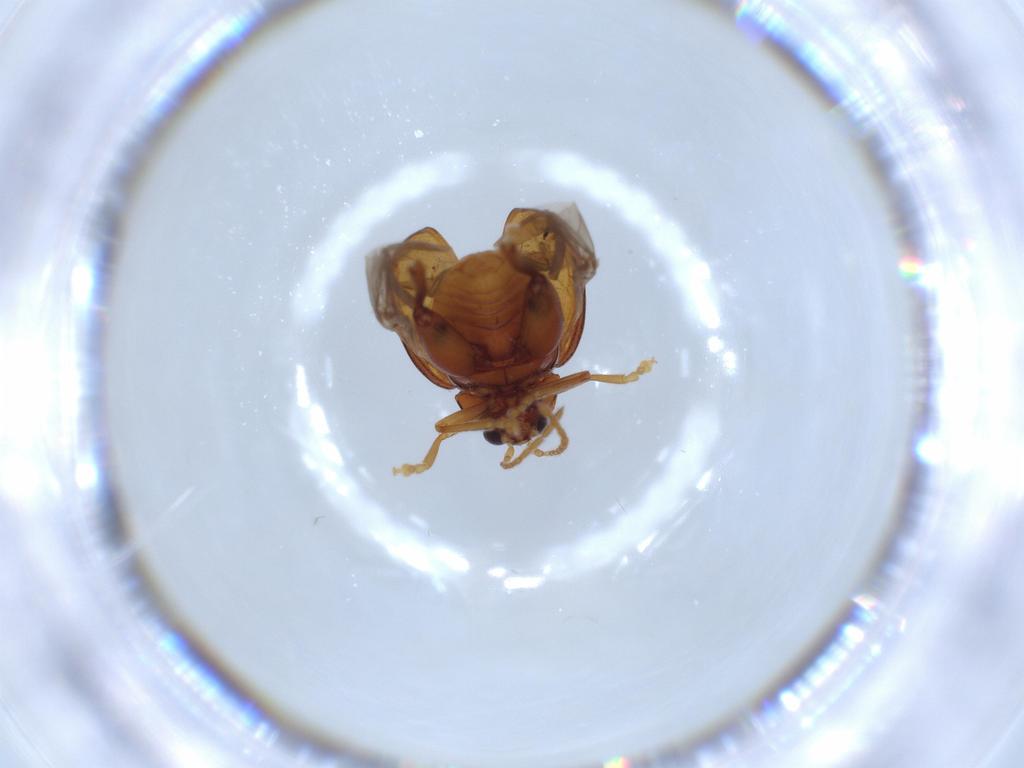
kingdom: Animalia
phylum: Arthropoda
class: Insecta
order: Coleoptera
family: Chrysomelidae
